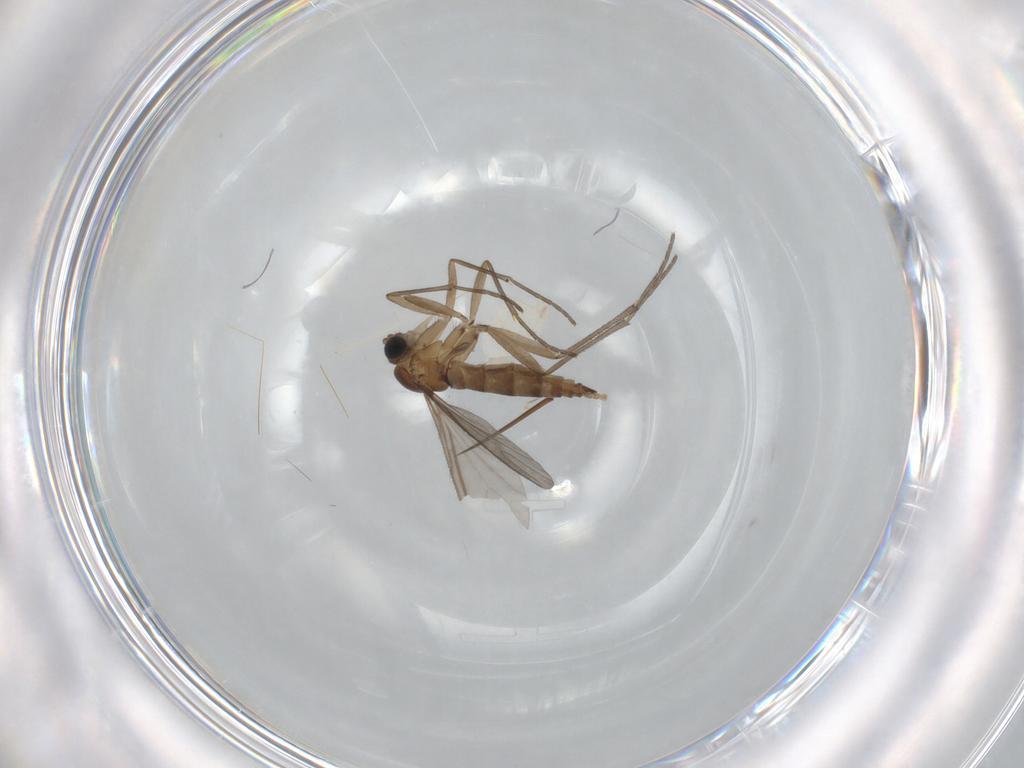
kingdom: Animalia
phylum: Arthropoda
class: Insecta
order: Diptera
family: Sciaridae
